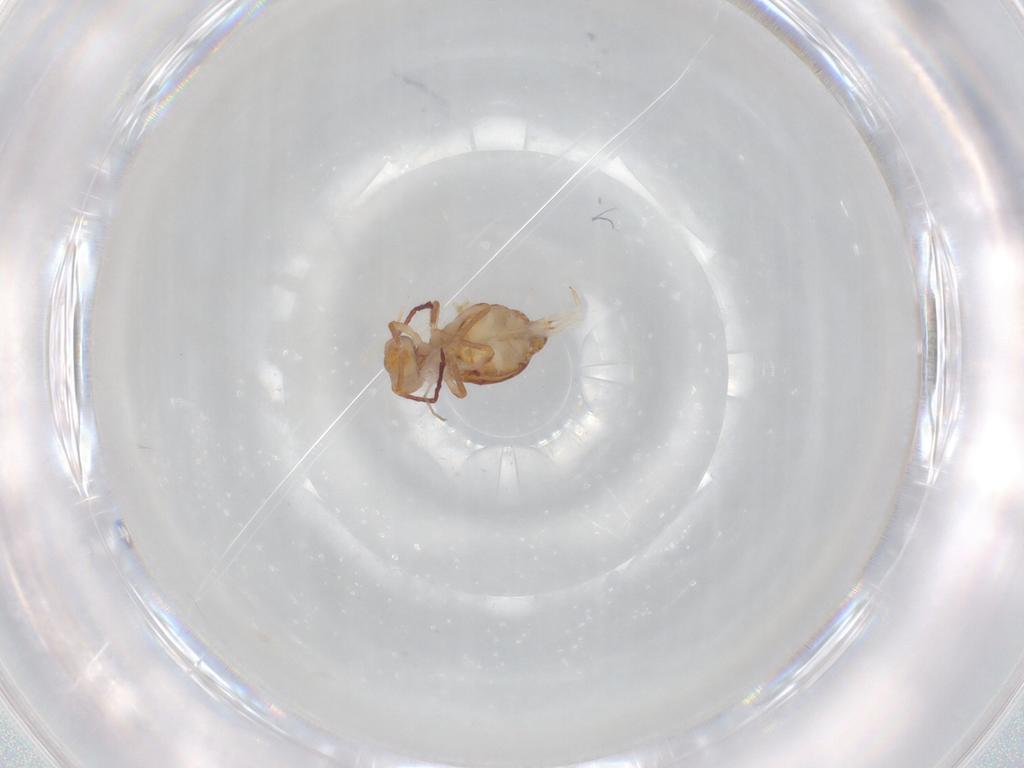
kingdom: Animalia
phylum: Arthropoda
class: Collembola
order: Symphypleona
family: Dicyrtomidae
